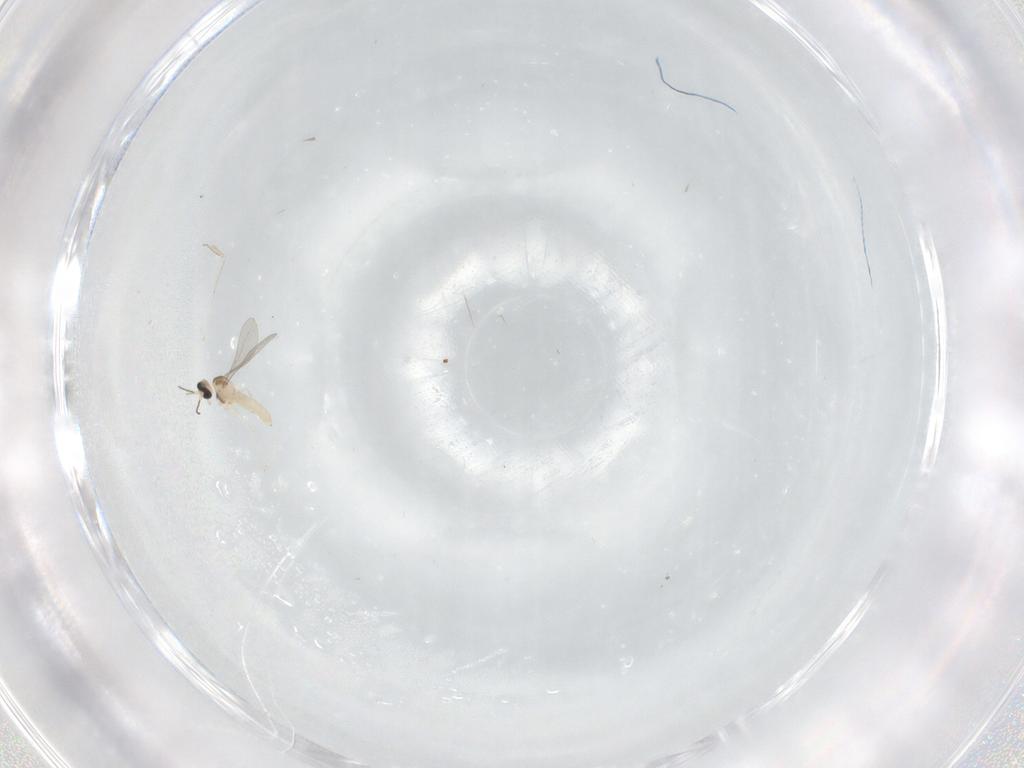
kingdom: Animalia
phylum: Arthropoda
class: Insecta
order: Diptera
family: Cecidomyiidae
